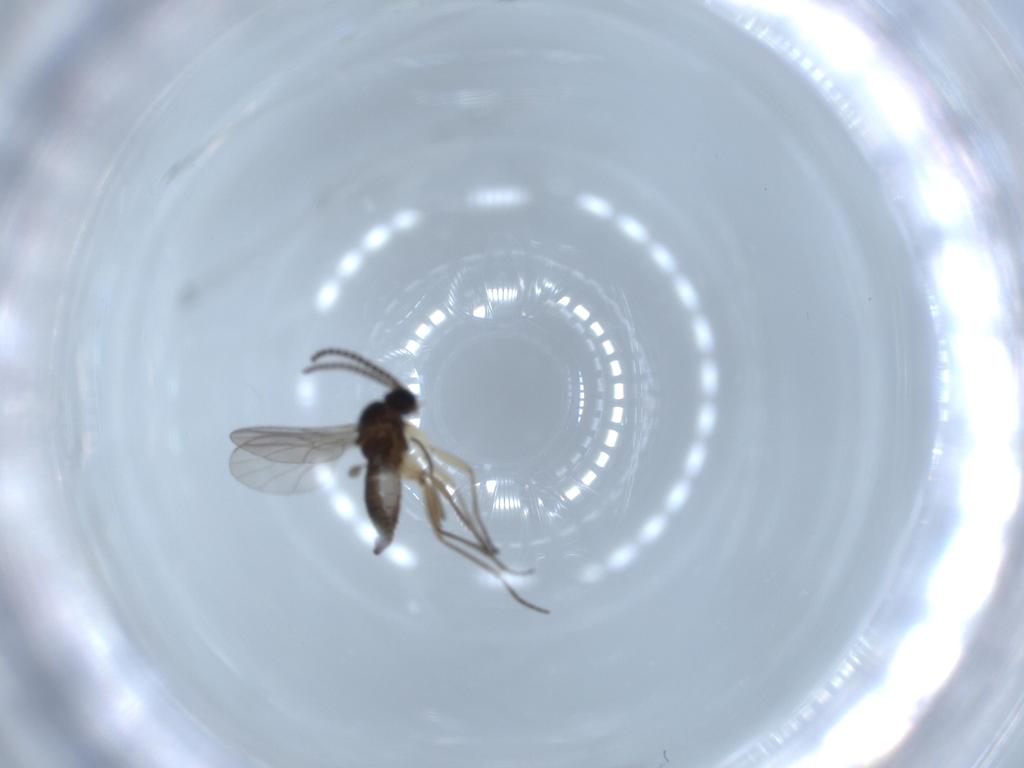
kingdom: Animalia
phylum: Arthropoda
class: Insecta
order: Diptera
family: Sciaridae
